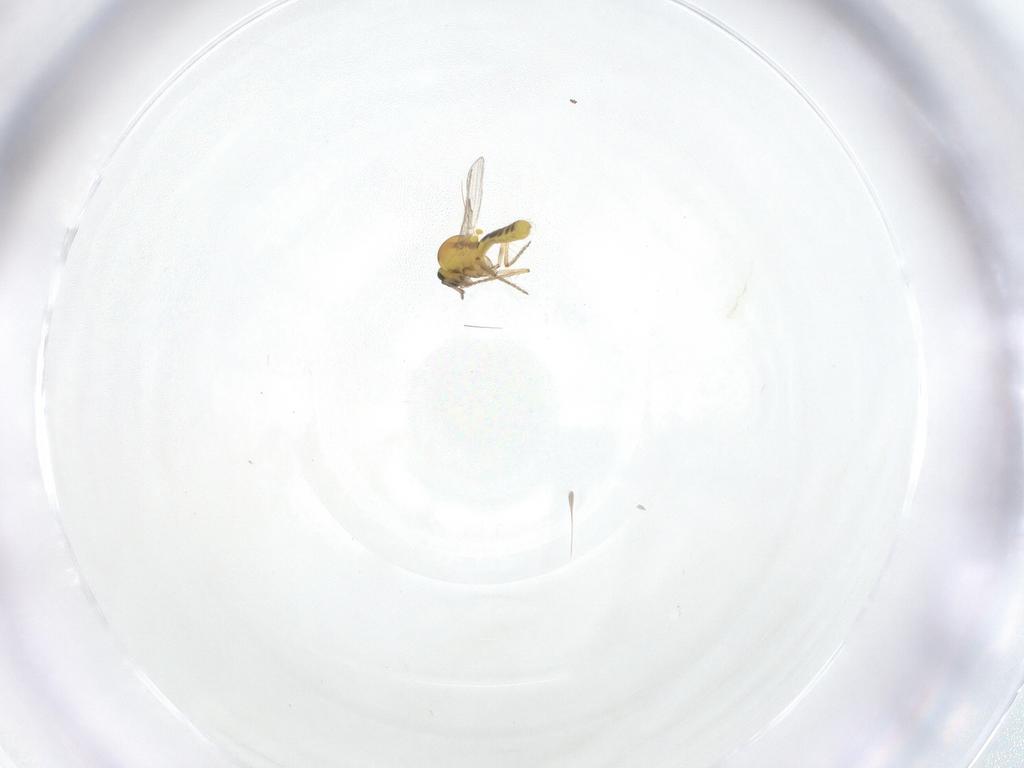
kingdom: Animalia
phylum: Arthropoda
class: Insecta
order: Diptera
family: Ceratopogonidae
